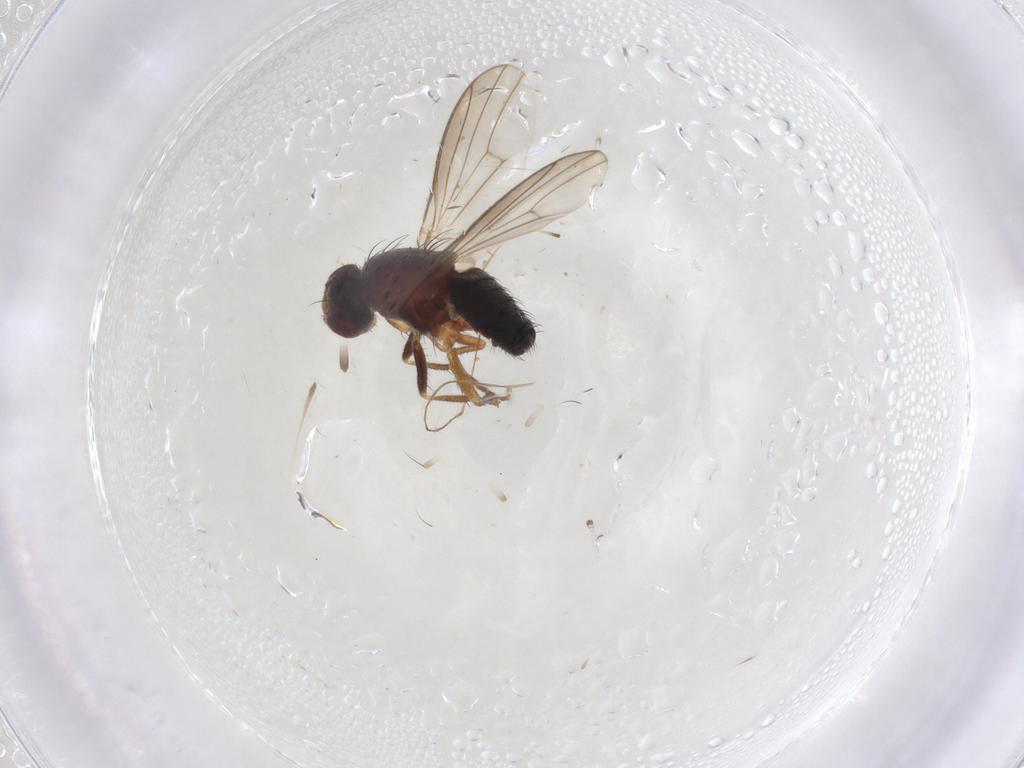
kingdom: Animalia
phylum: Arthropoda
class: Insecta
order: Diptera
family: Heleomyzidae
